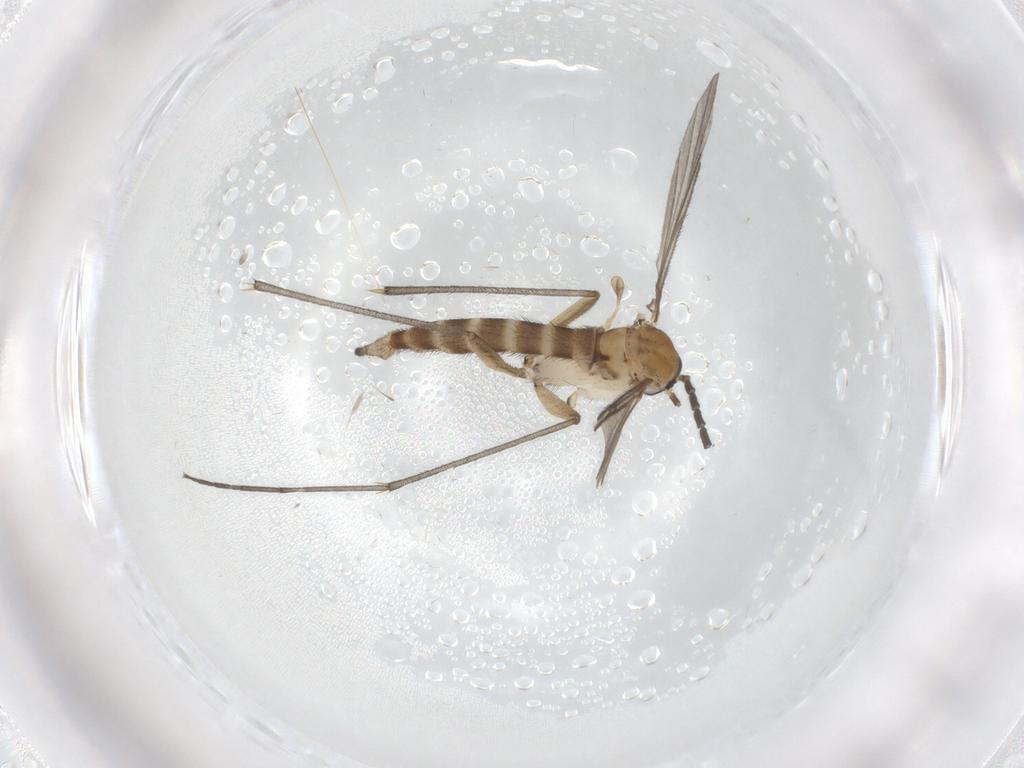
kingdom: Animalia
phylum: Arthropoda
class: Insecta
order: Diptera
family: Sciaridae
